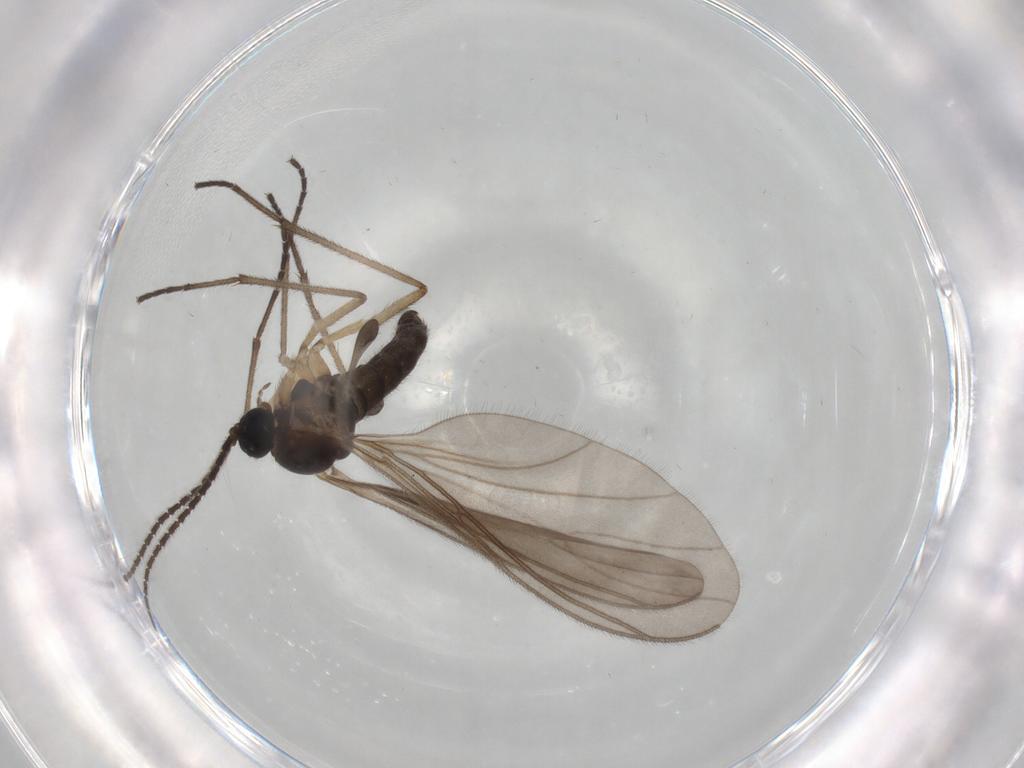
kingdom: Animalia
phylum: Arthropoda
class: Insecta
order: Diptera
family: Sciaridae
